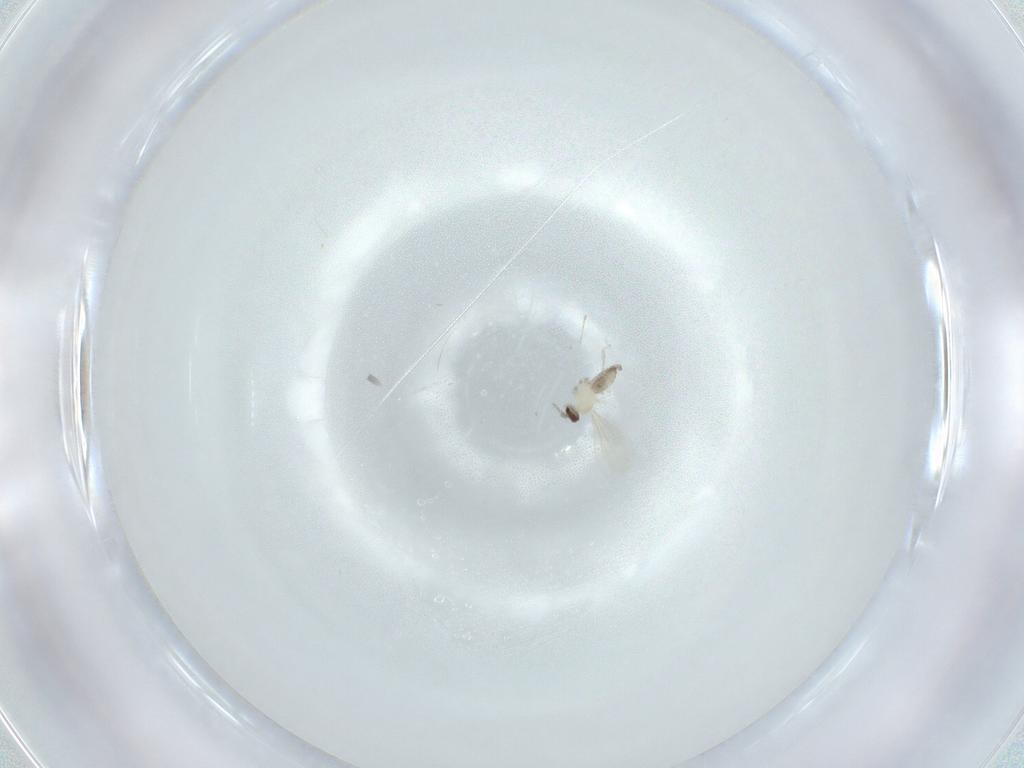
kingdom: Animalia
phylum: Arthropoda
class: Insecta
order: Diptera
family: Cecidomyiidae
